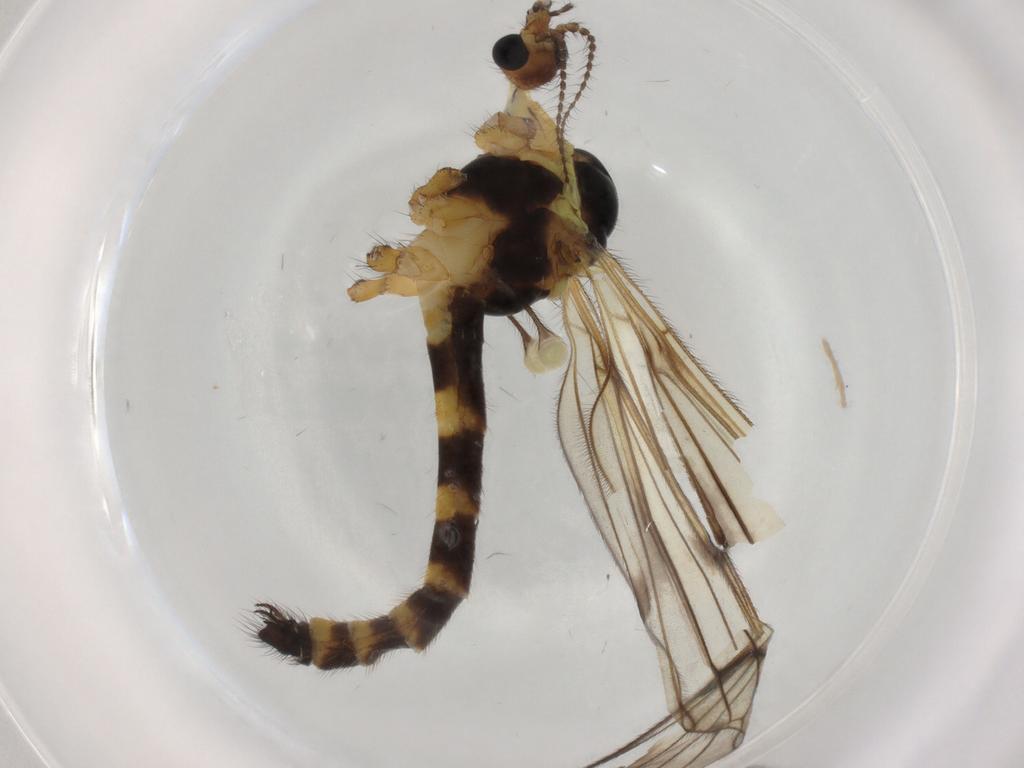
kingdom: Animalia
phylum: Arthropoda
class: Insecta
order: Diptera
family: Limoniidae
